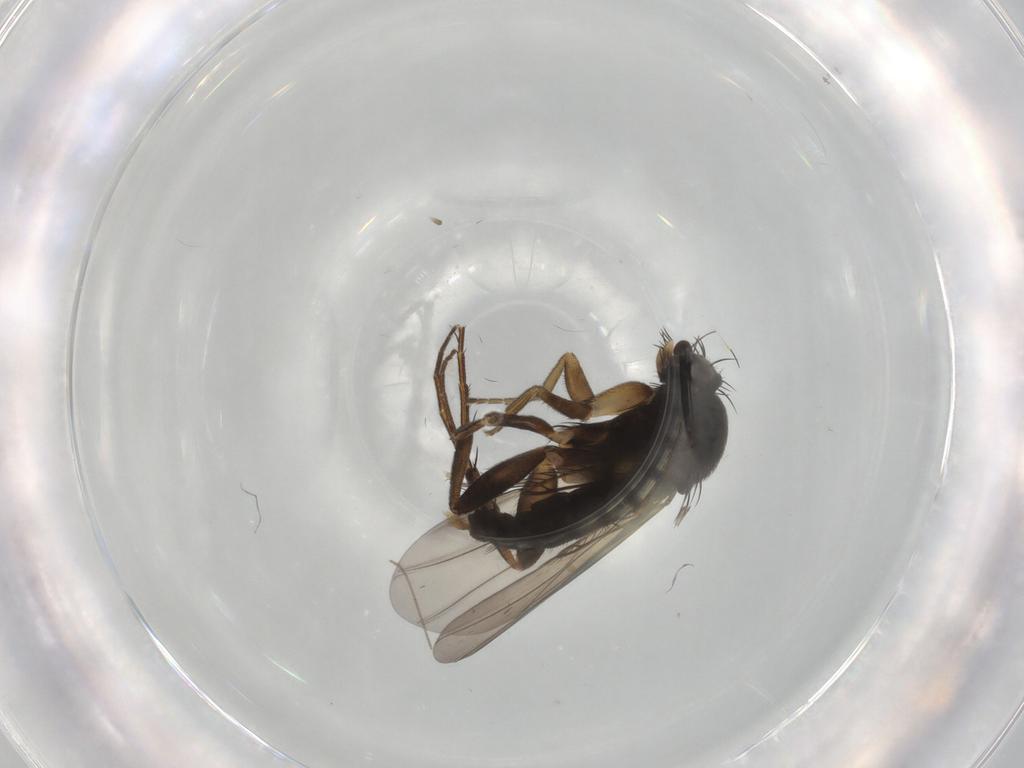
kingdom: Animalia
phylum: Arthropoda
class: Insecta
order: Diptera
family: Phoridae
